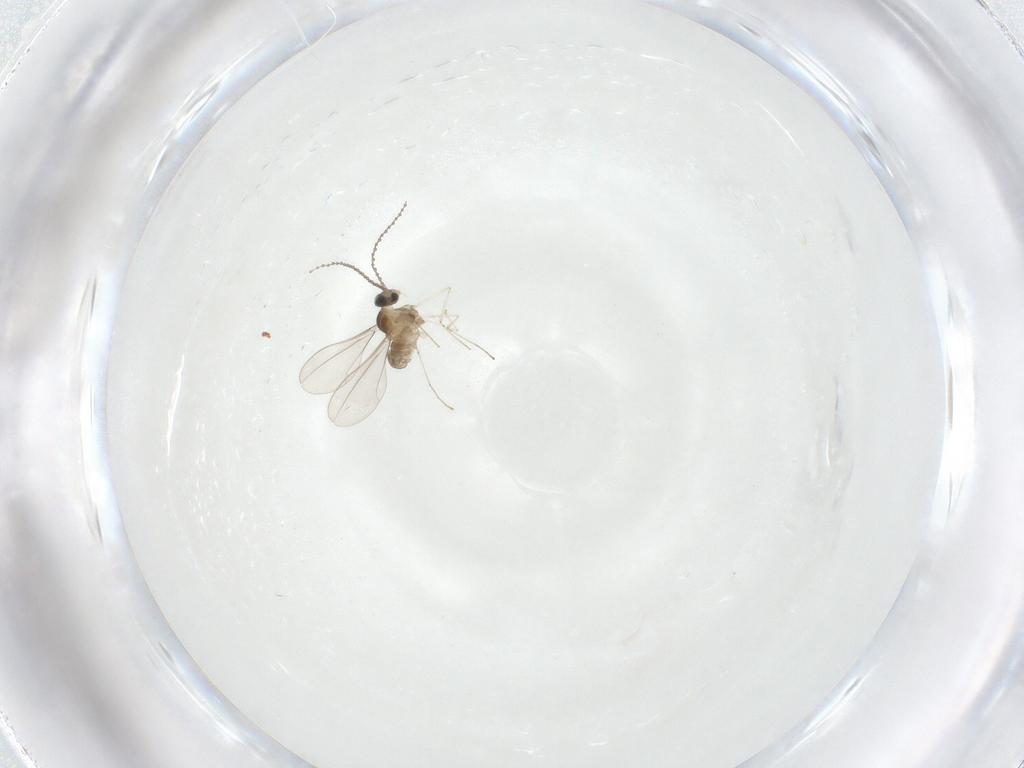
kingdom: Animalia
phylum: Arthropoda
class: Insecta
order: Diptera
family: Cecidomyiidae
